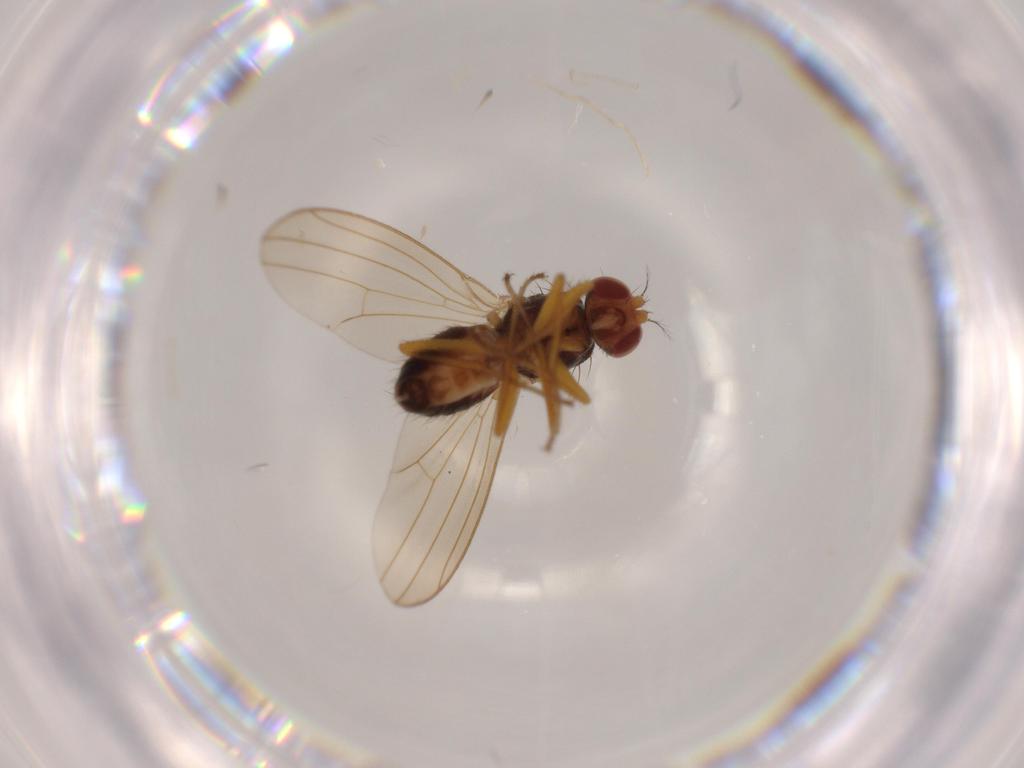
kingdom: Animalia
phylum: Arthropoda
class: Insecta
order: Diptera
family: Drosophilidae
